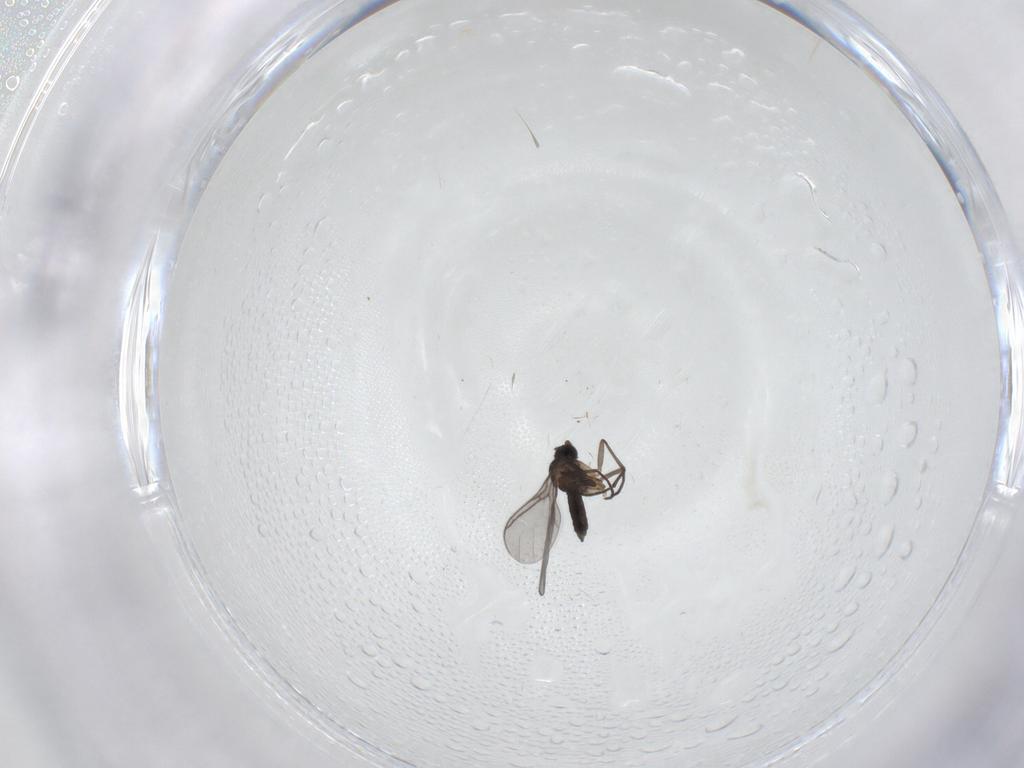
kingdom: Animalia
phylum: Arthropoda
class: Insecta
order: Diptera
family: Sciaridae
